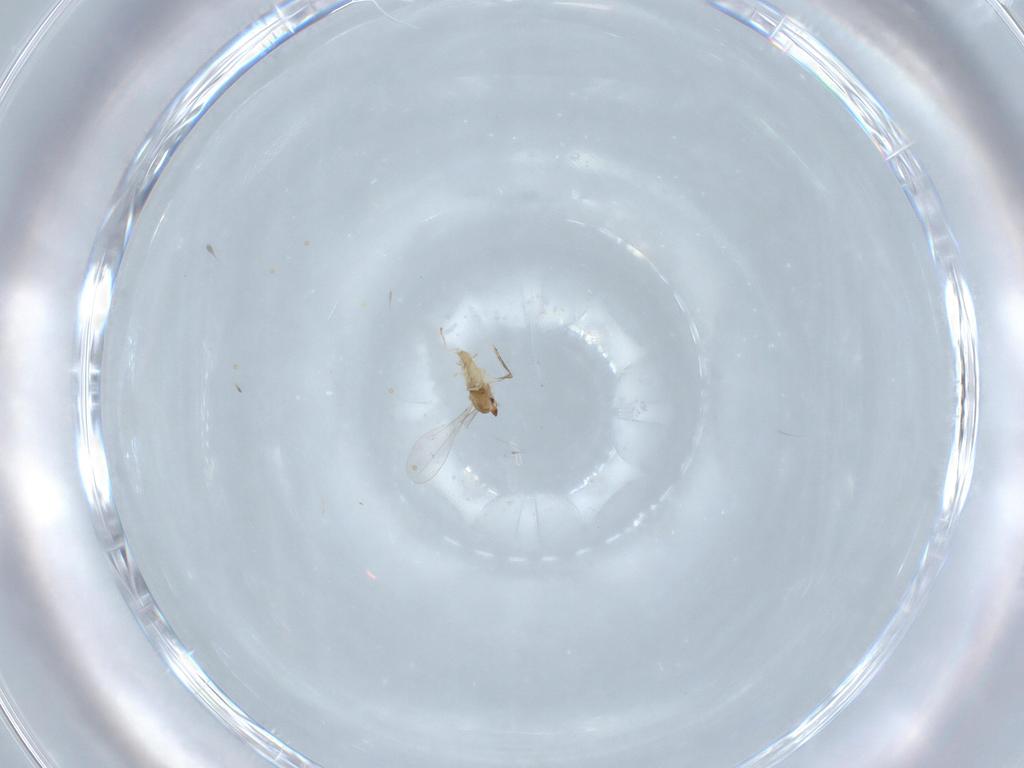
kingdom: Animalia
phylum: Arthropoda
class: Insecta
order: Diptera
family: Cecidomyiidae
